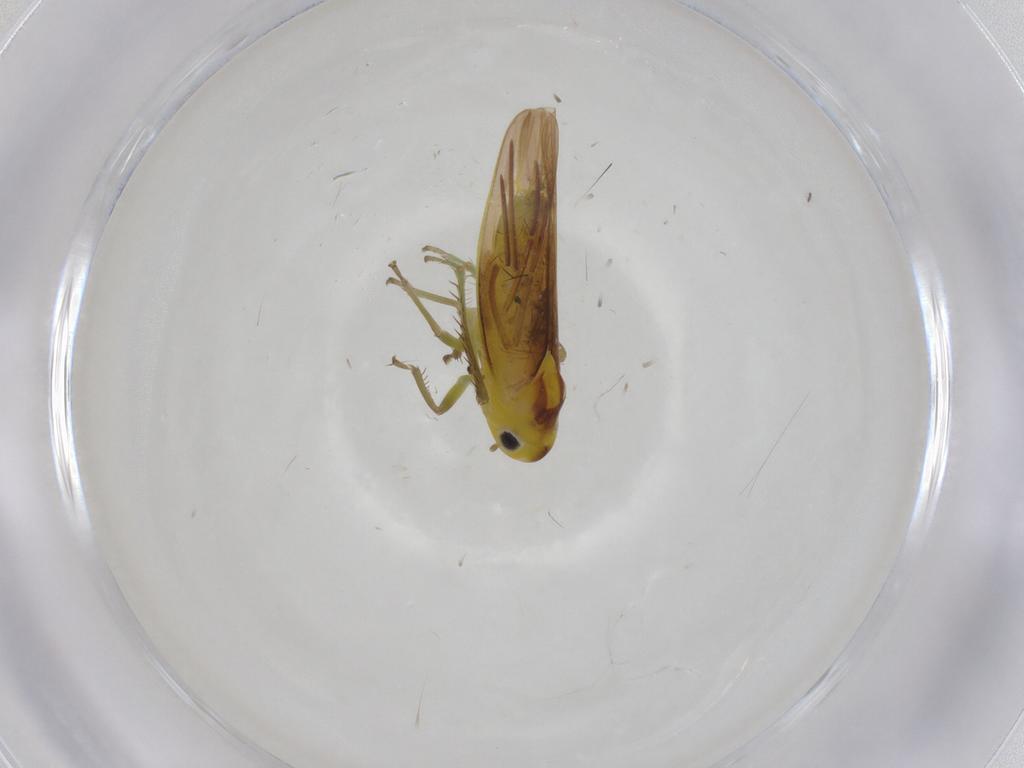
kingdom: Animalia
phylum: Arthropoda
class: Insecta
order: Hemiptera
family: Cicadellidae
